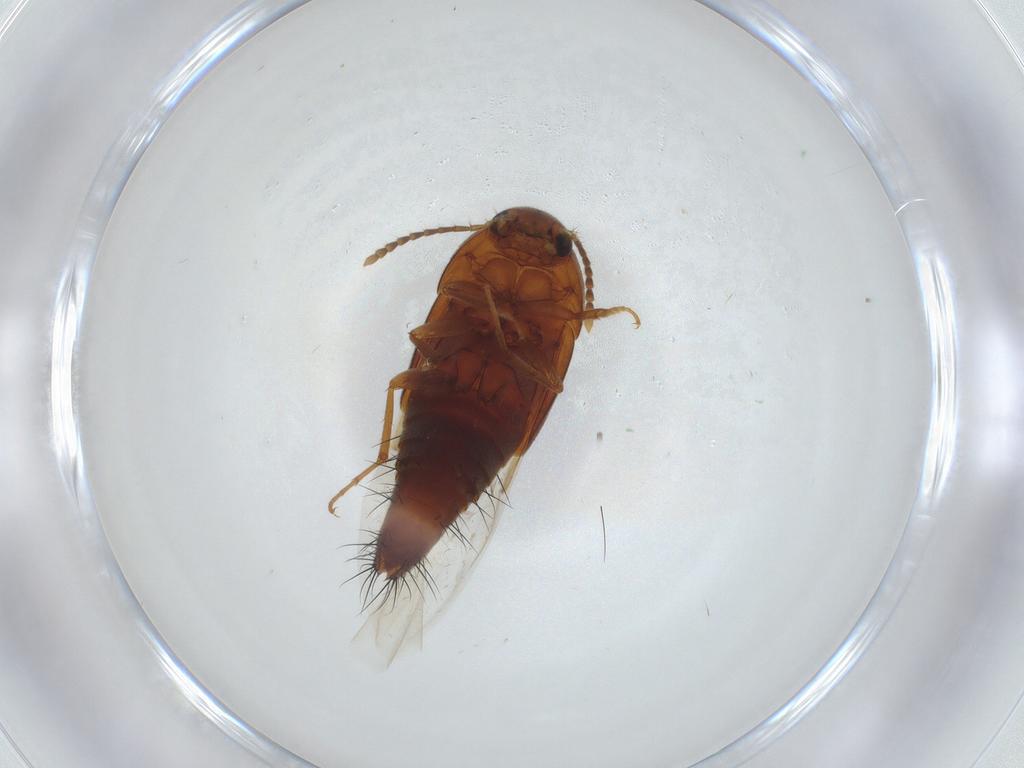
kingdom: Animalia
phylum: Arthropoda
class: Insecta
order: Coleoptera
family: Staphylinidae
